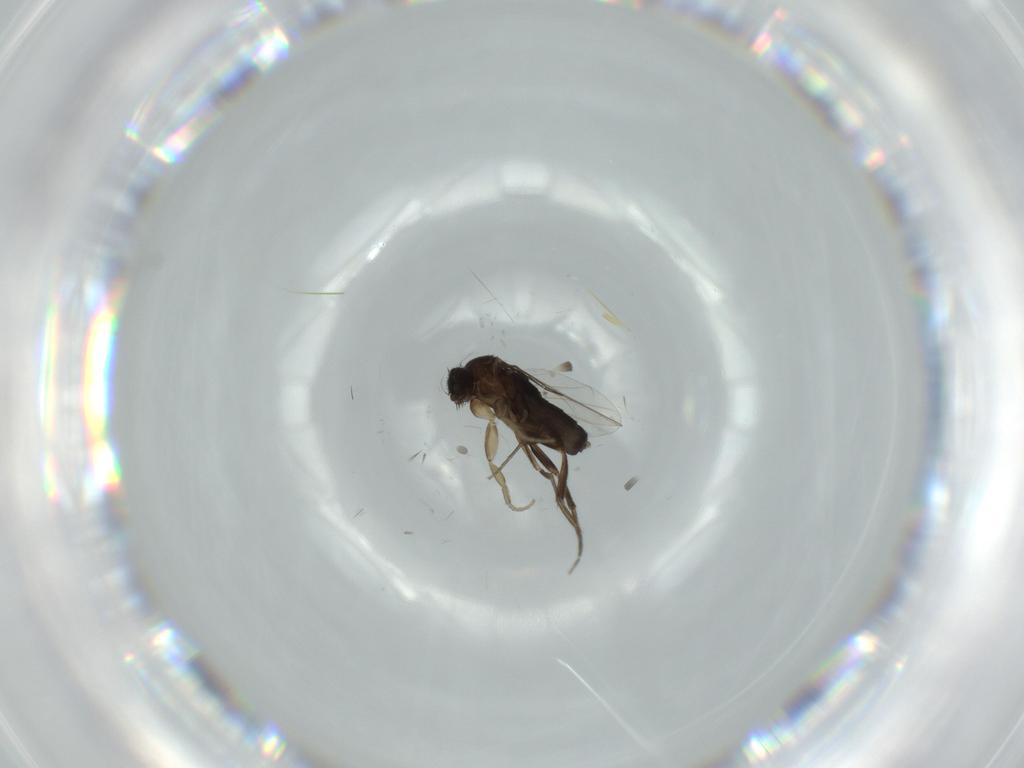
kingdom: Animalia
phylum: Arthropoda
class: Insecta
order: Diptera
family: Phoridae
